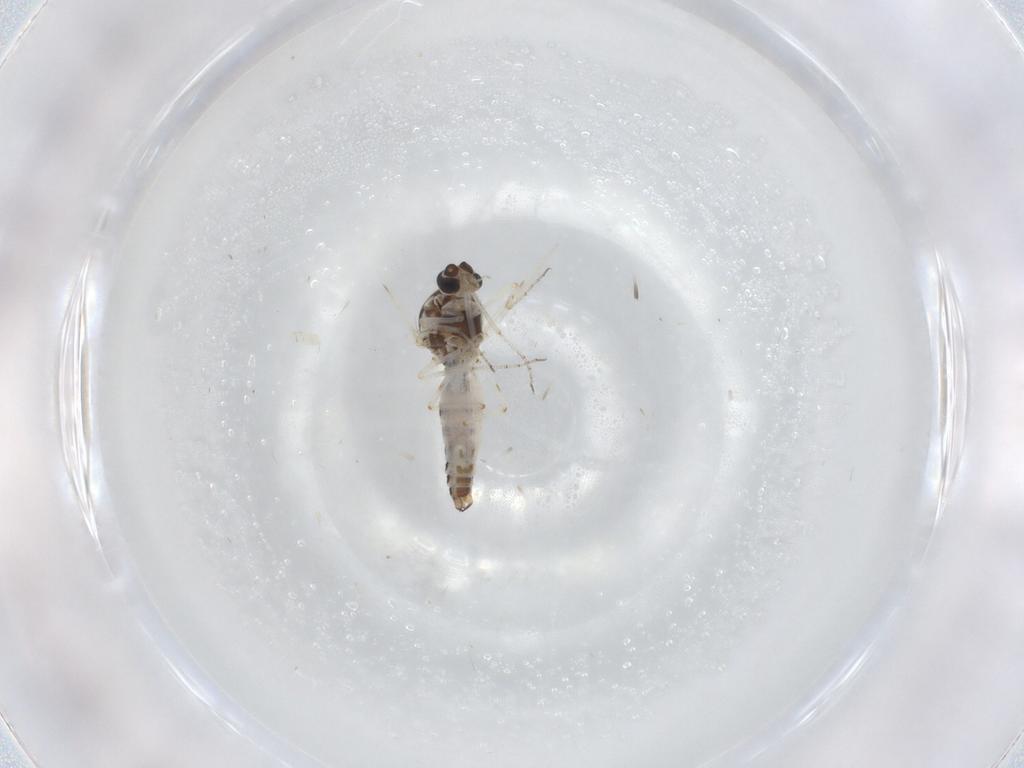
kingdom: Animalia
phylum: Arthropoda
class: Insecta
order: Diptera
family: Ceratopogonidae
